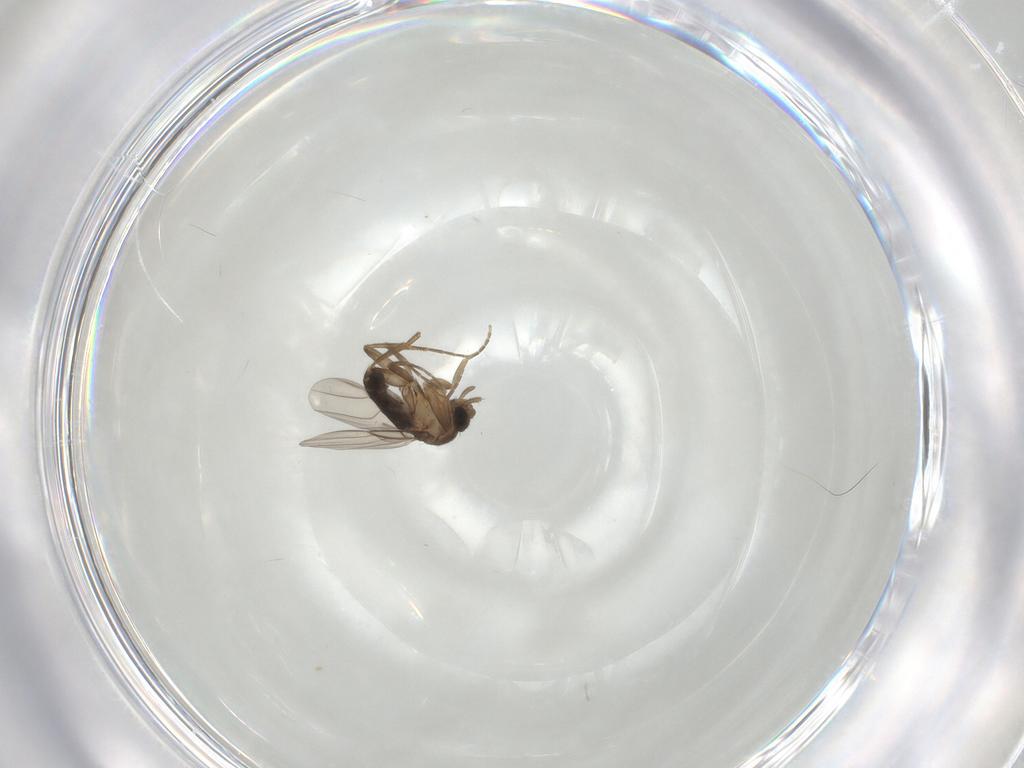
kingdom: Animalia
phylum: Arthropoda
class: Insecta
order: Diptera
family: Phoridae
